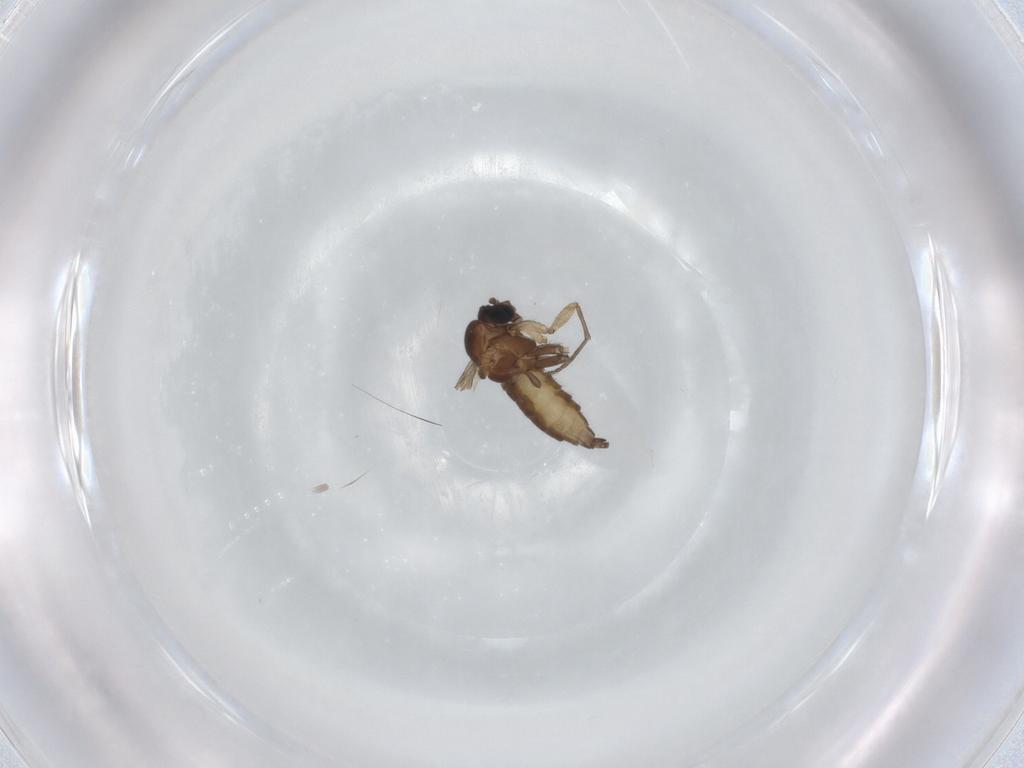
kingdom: Animalia
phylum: Arthropoda
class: Insecta
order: Diptera
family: Sciaridae
